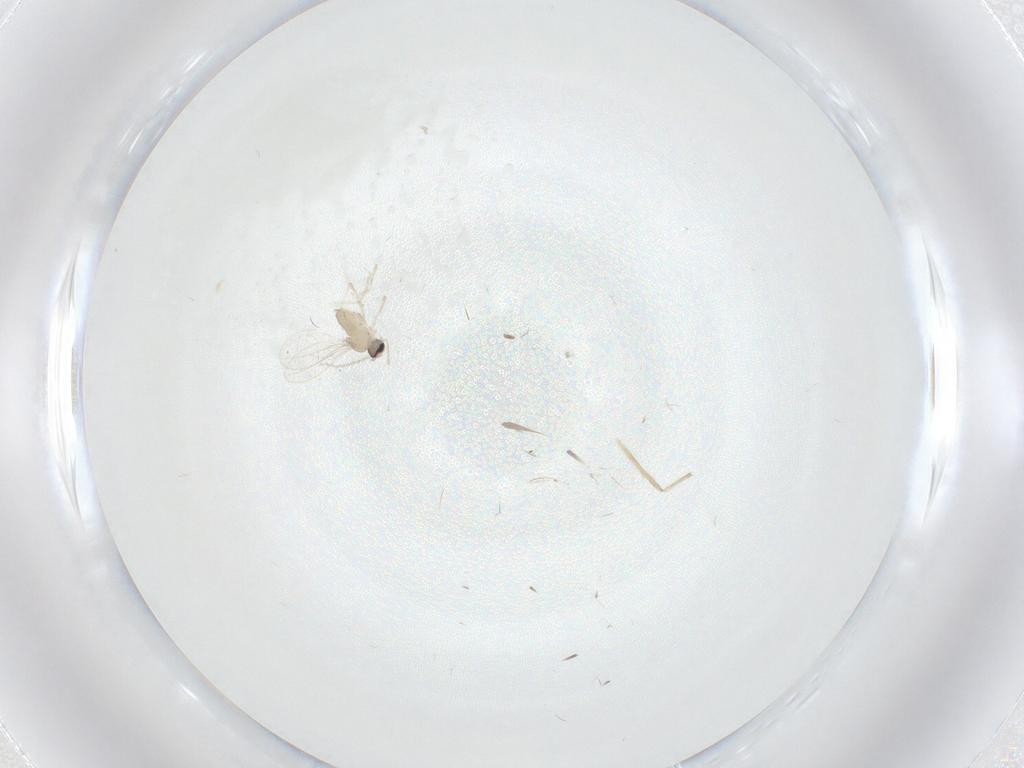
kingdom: Animalia
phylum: Arthropoda
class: Insecta
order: Diptera
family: Cecidomyiidae
